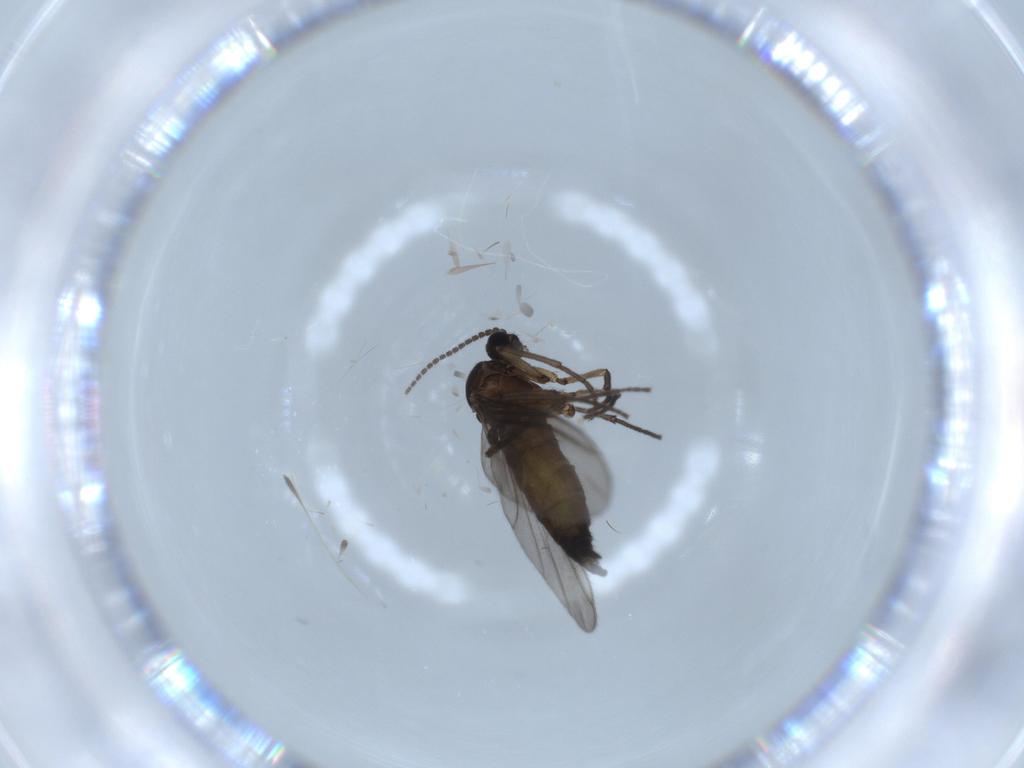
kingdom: Animalia
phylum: Arthropoda
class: Insecta
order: Diptera
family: Sciaridae
